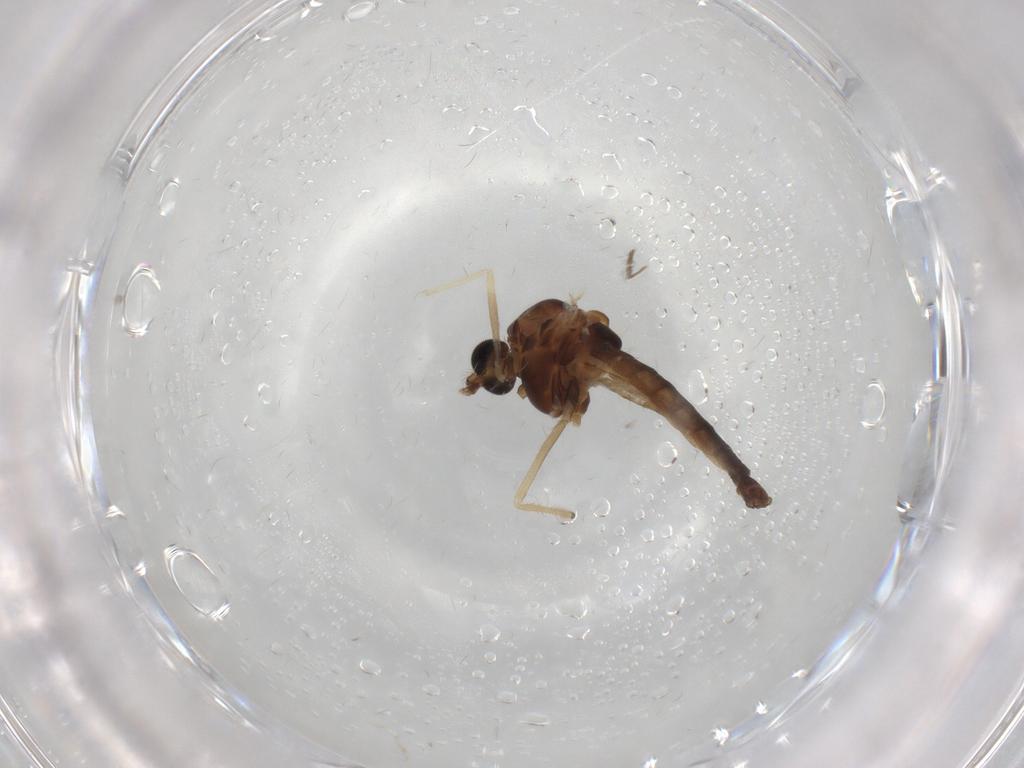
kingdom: Animalia
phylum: Arthropoda
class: Insecta
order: Diptera
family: Chironomidae
